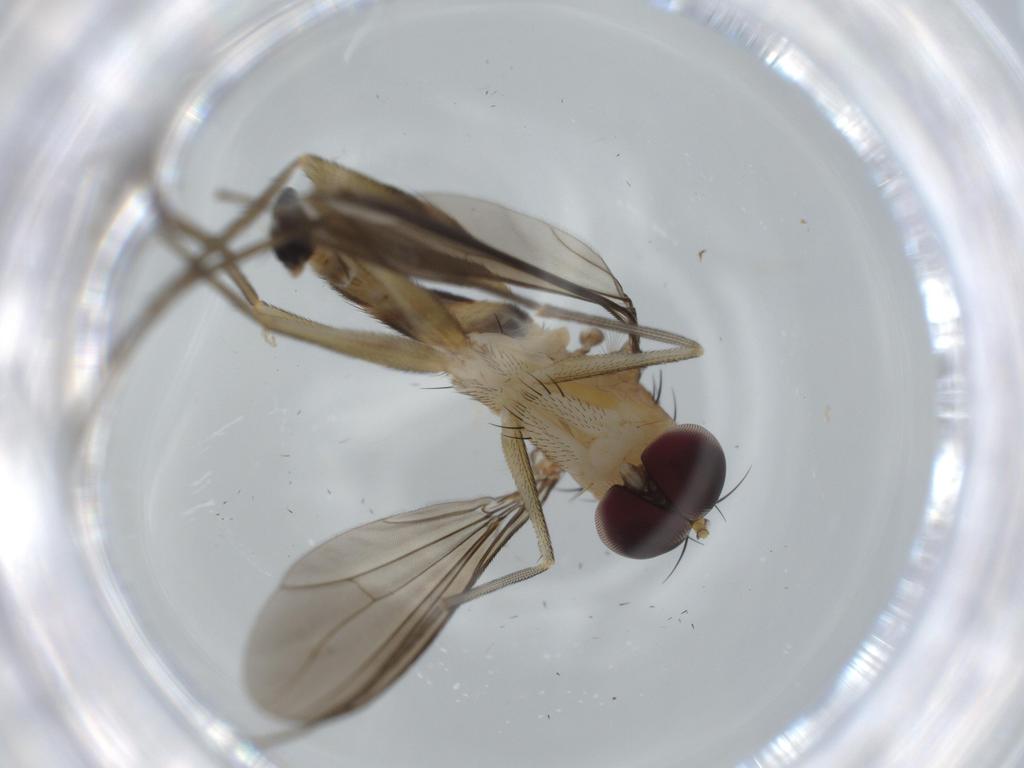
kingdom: Animalia
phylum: Arthropoda
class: Insecta
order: Diptera
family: Dolichopodidae
